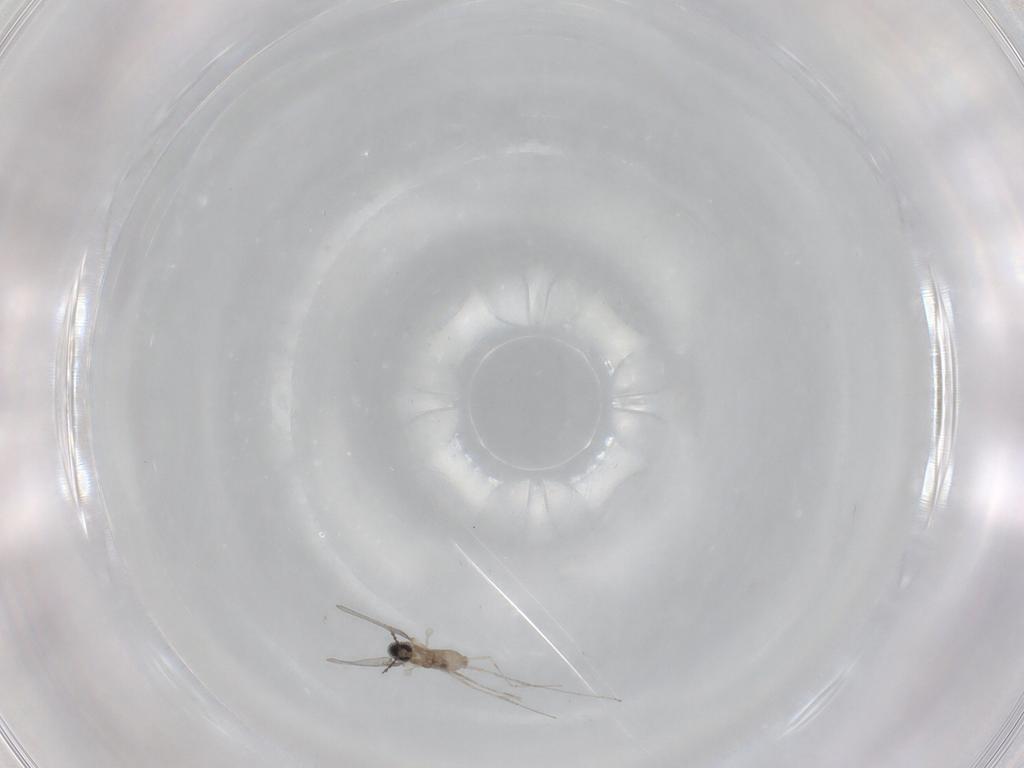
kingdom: Animalia
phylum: Arthropoda
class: Insecta
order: Diptera
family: Cecidomyiidae
